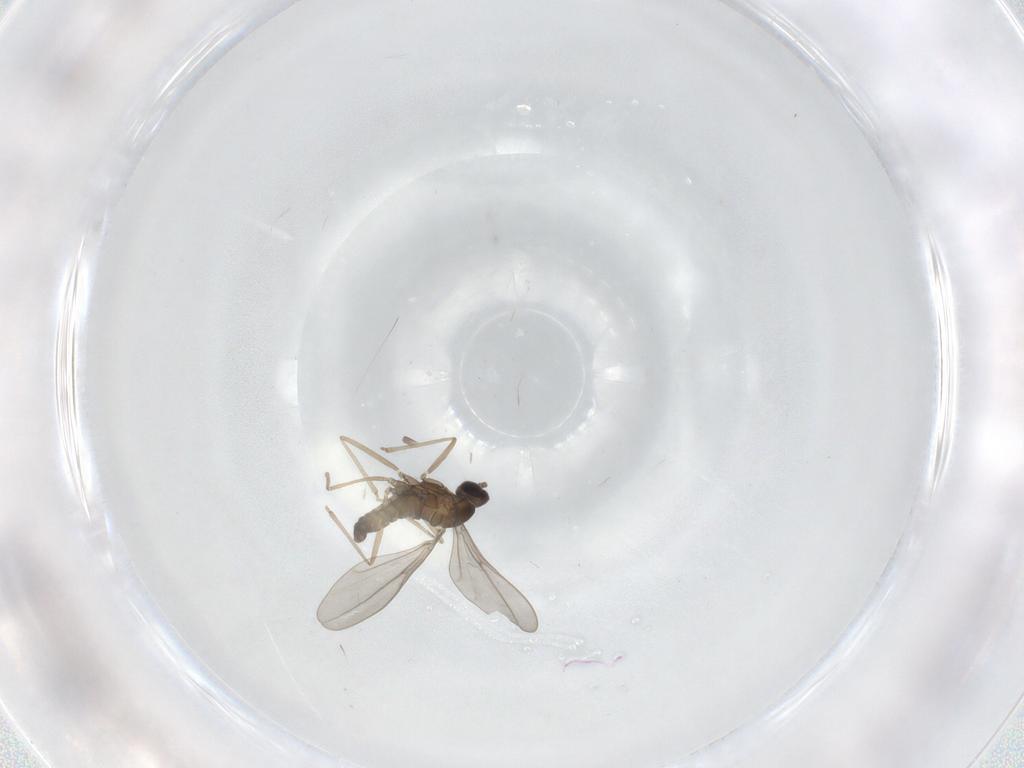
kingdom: Animalia
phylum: Arthropoda
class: Insecta
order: Diptera
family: Cecidomyiidae
